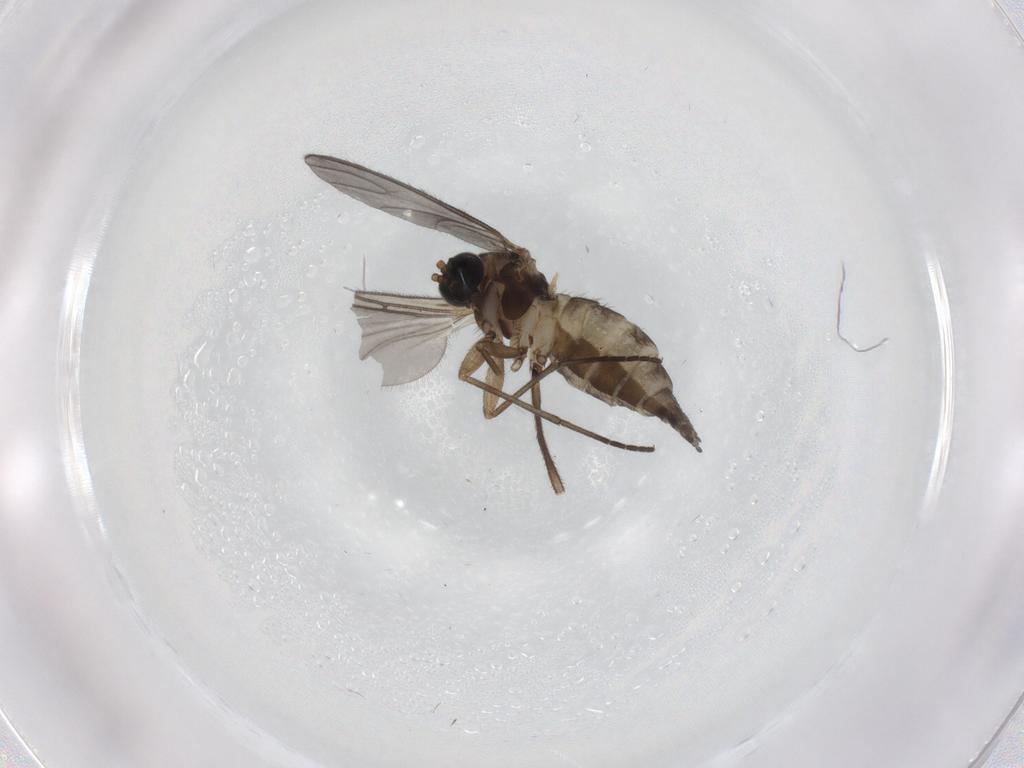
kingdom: Animalia
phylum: Arthropoda
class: Insecta
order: Diptera
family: Sciaridae
